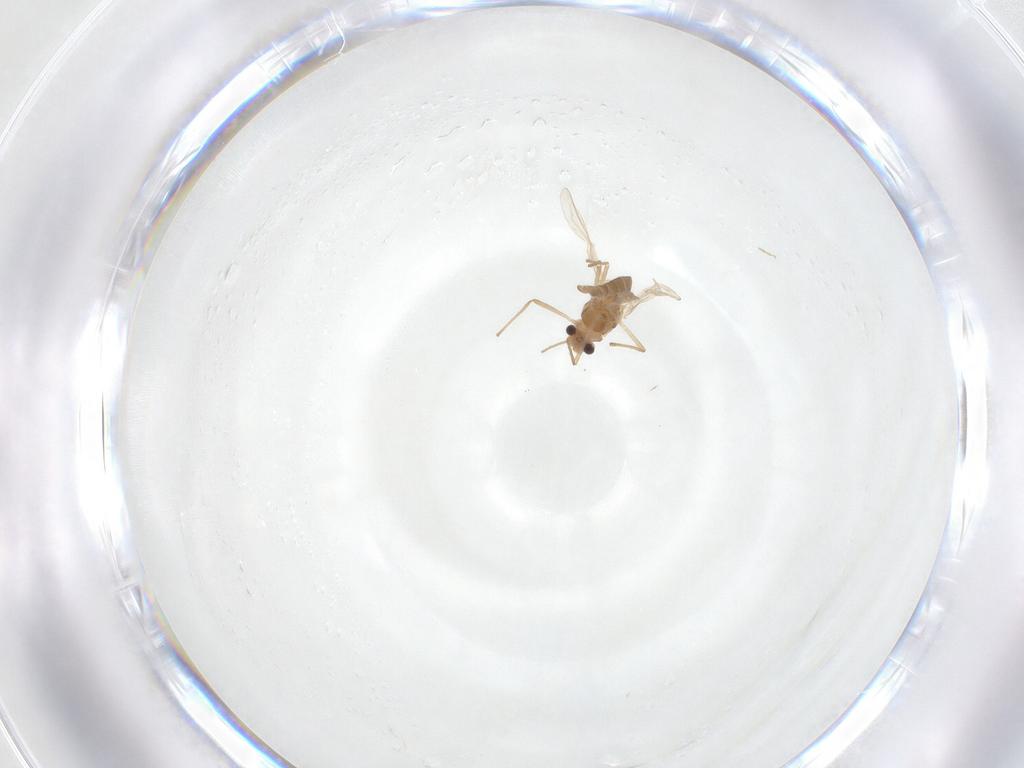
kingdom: Animalia
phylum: Arthropoda
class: Insecta
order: Diptera
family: Chironomidae
